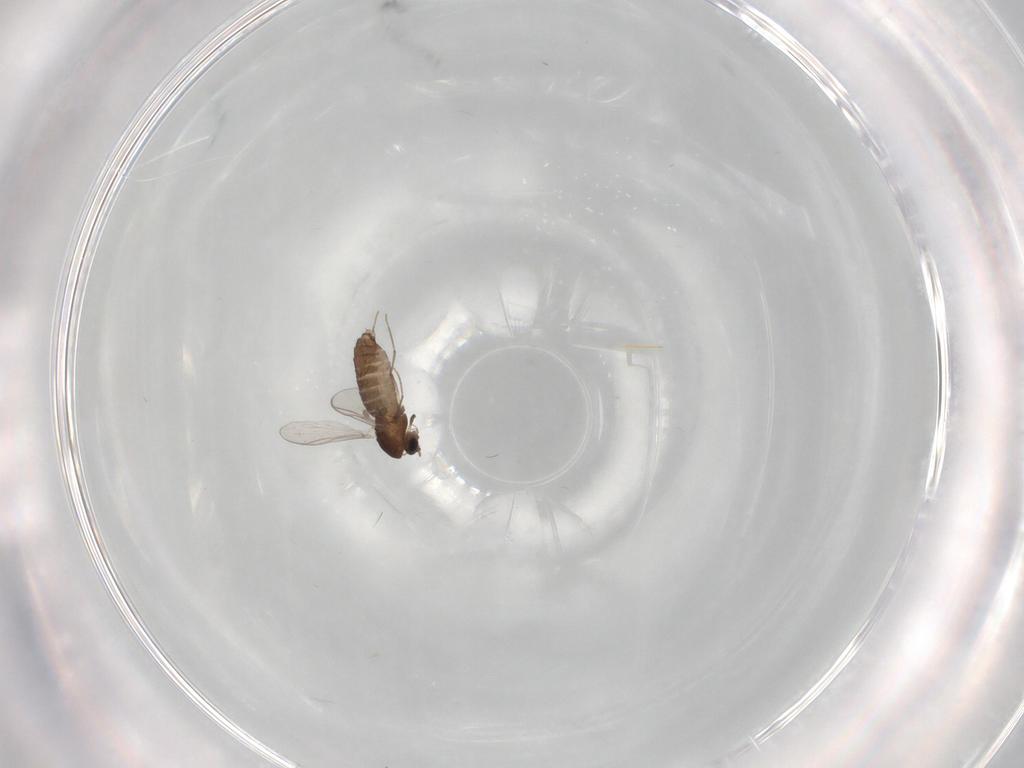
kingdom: Animalia
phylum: Arthropoda
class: Insecta
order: Diptera
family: Chironomidae
